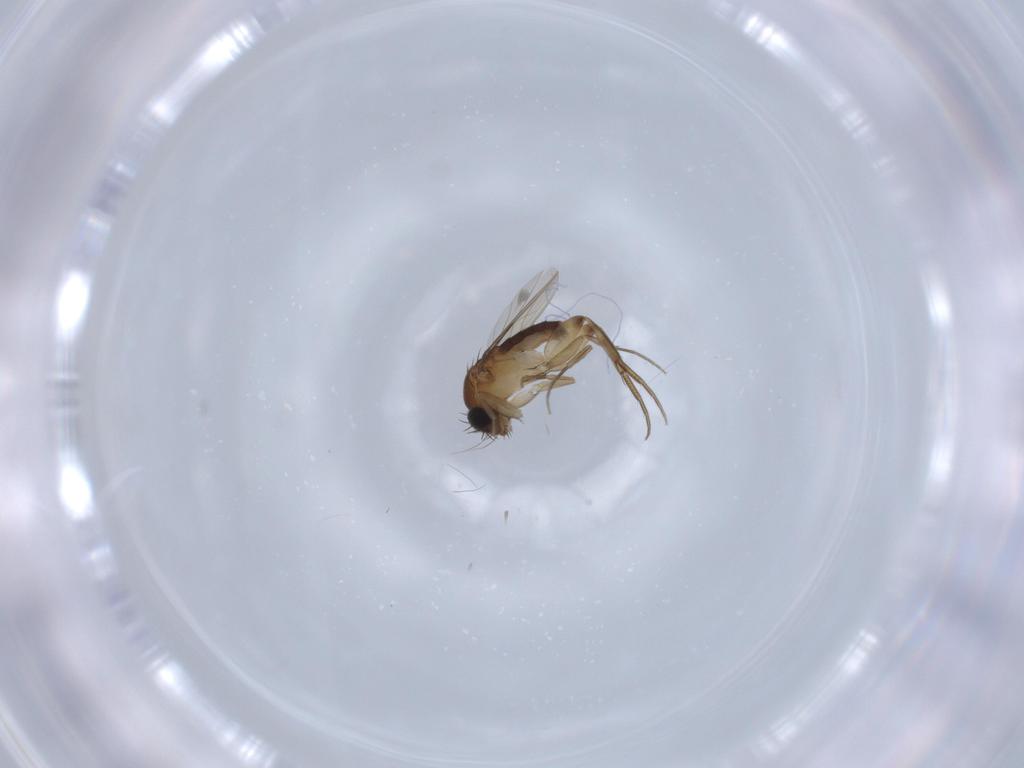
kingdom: Animalia
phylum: Arthropoda
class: Insecta
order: Diptera
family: Phoridae
